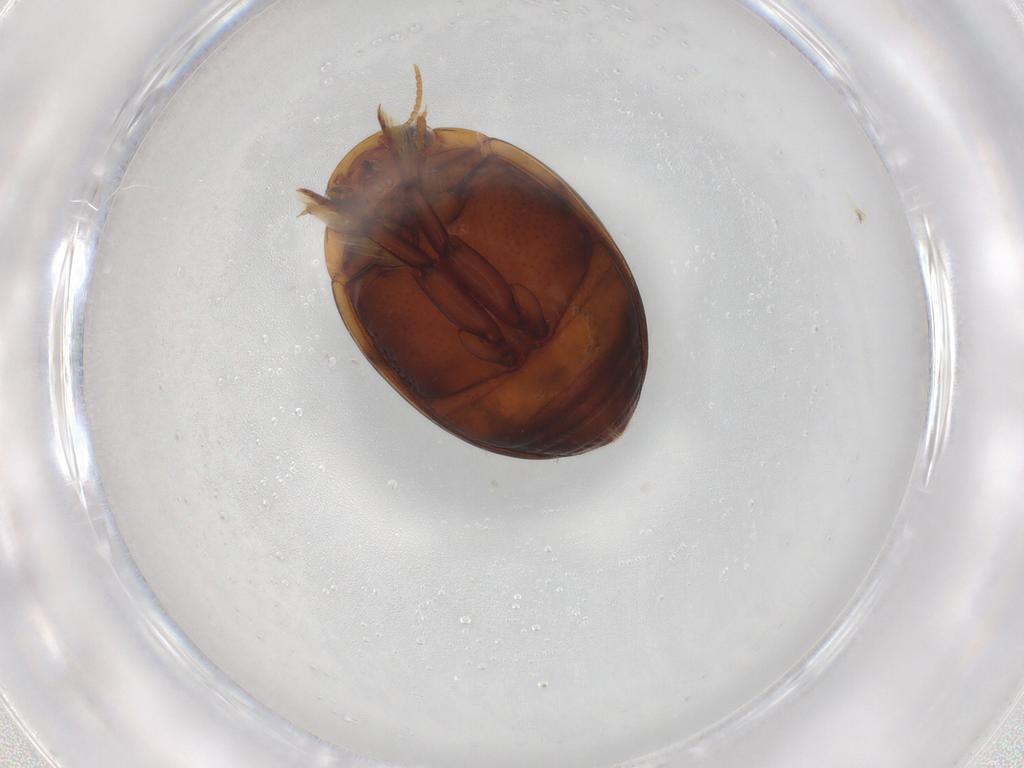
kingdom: Animalia
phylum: Arthropoda
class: Insecta
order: Coleoptera
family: Dytiscidae
